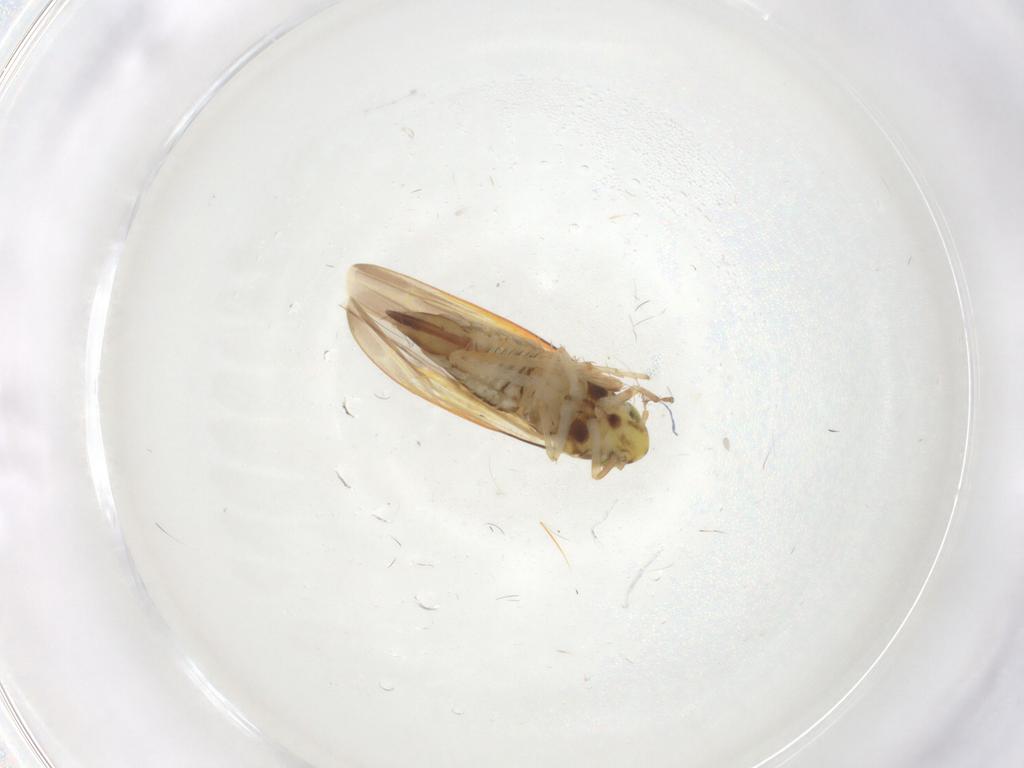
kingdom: Animalia
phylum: Arthropoda
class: Insecta
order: Hemiptera
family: Cicadellidae
